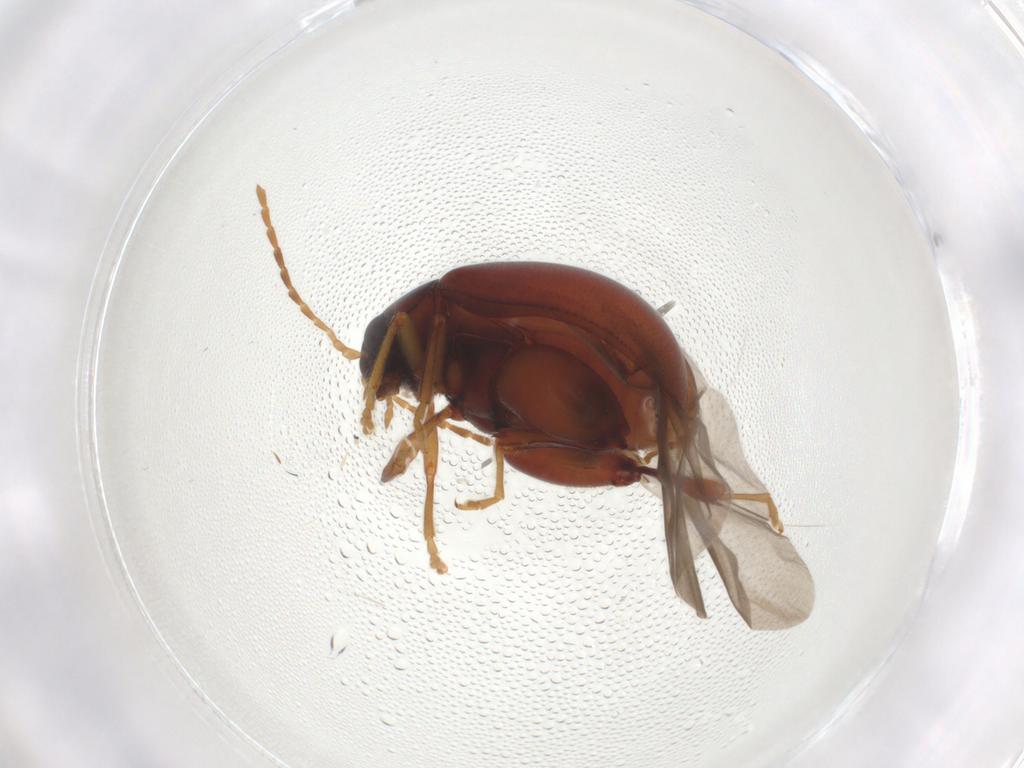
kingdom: Animalia
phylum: Arthropoda
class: Insecta
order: Coleoptera
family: Chrysomelidae
